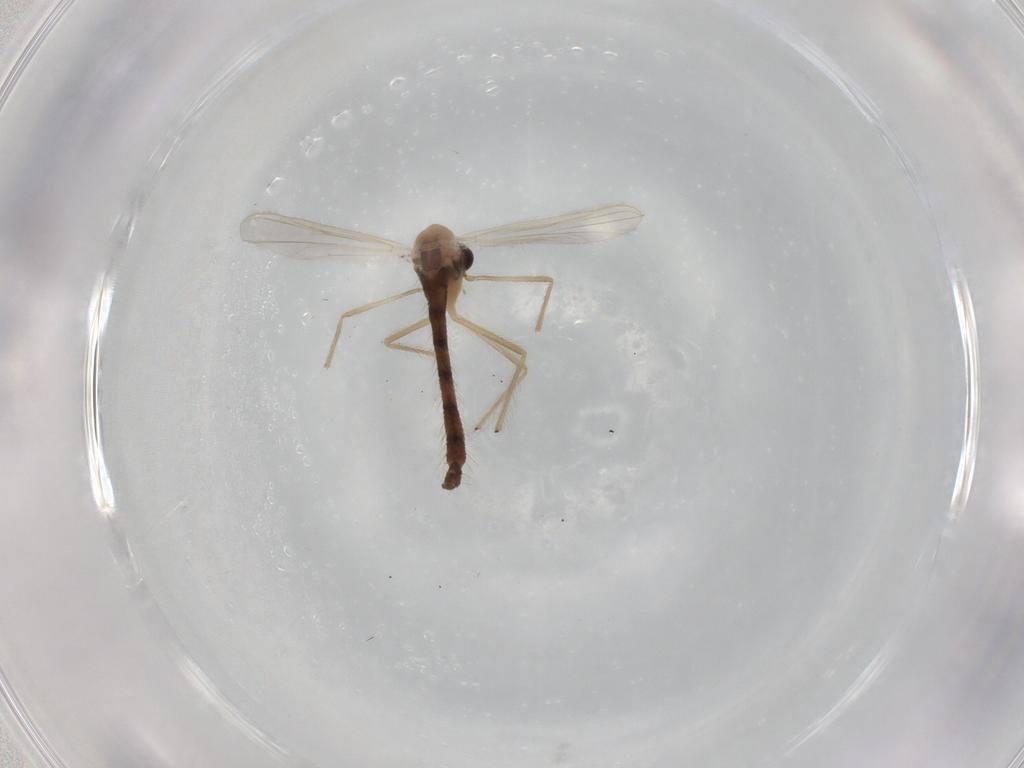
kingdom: Animalia
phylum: Arthropoda
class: Insecta
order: Diptera
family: Chironomidae
